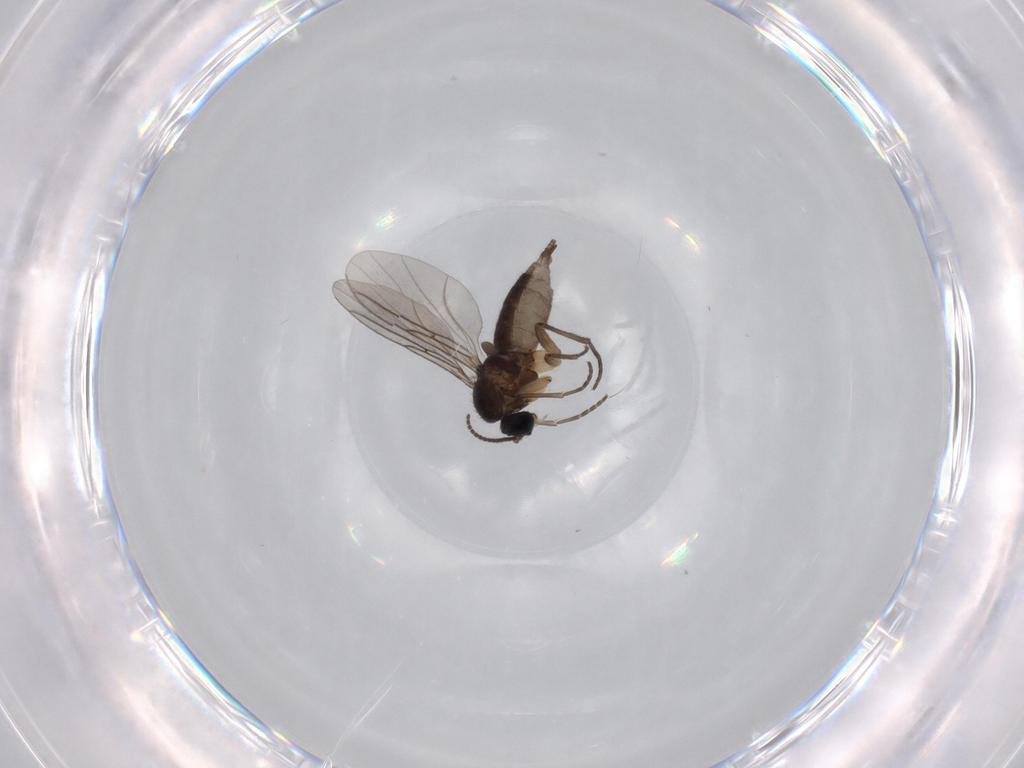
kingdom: Animalia
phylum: Arthropoda
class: Insecta
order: Diptera
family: Sciaridae
